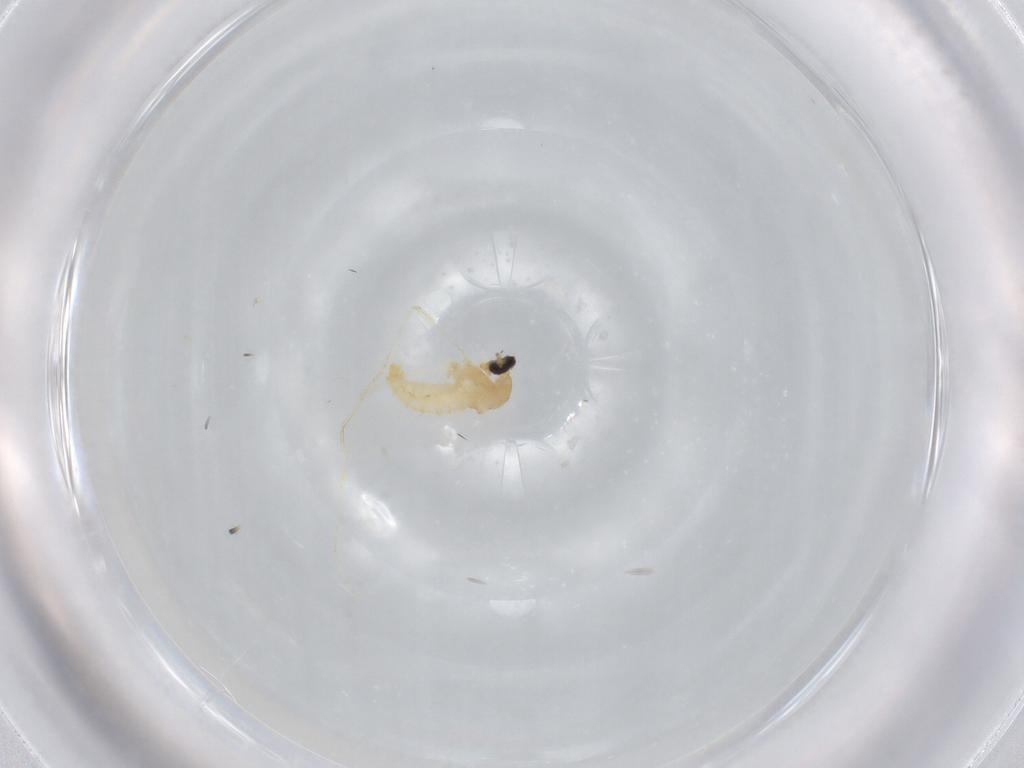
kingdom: Animalia
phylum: Arthropoda
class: Insecta
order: Diptera
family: Cecidomyiidae
